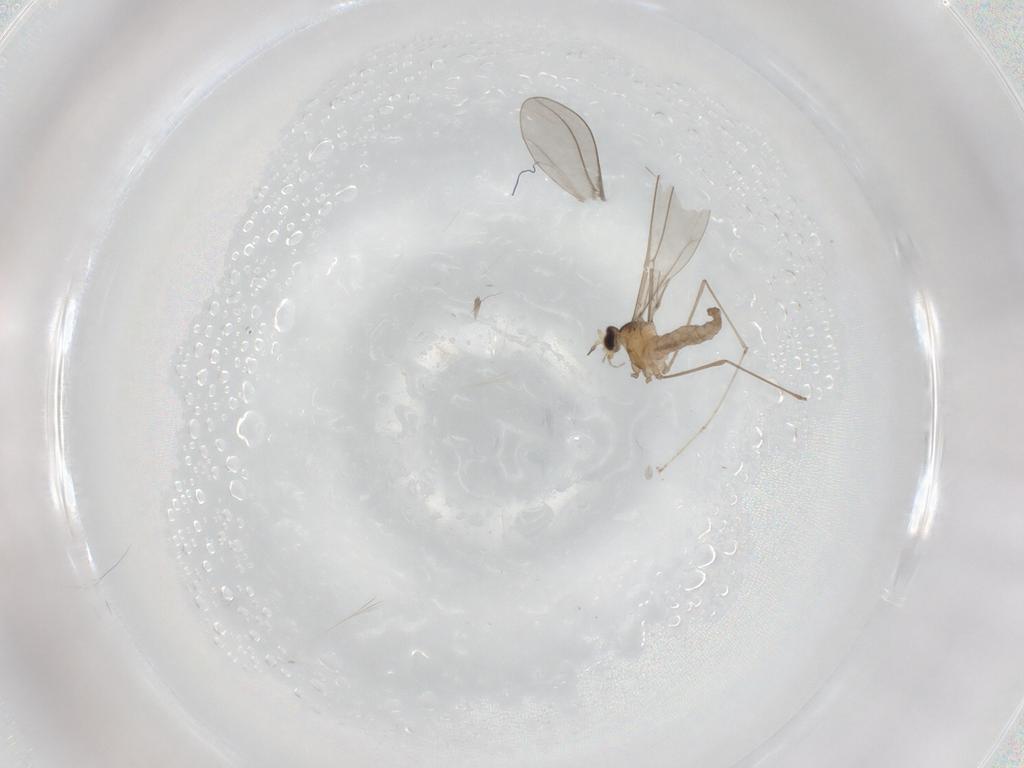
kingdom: Animalia
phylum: Arthropoda
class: Insecta
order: Diptera
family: Cecidomyiidae
